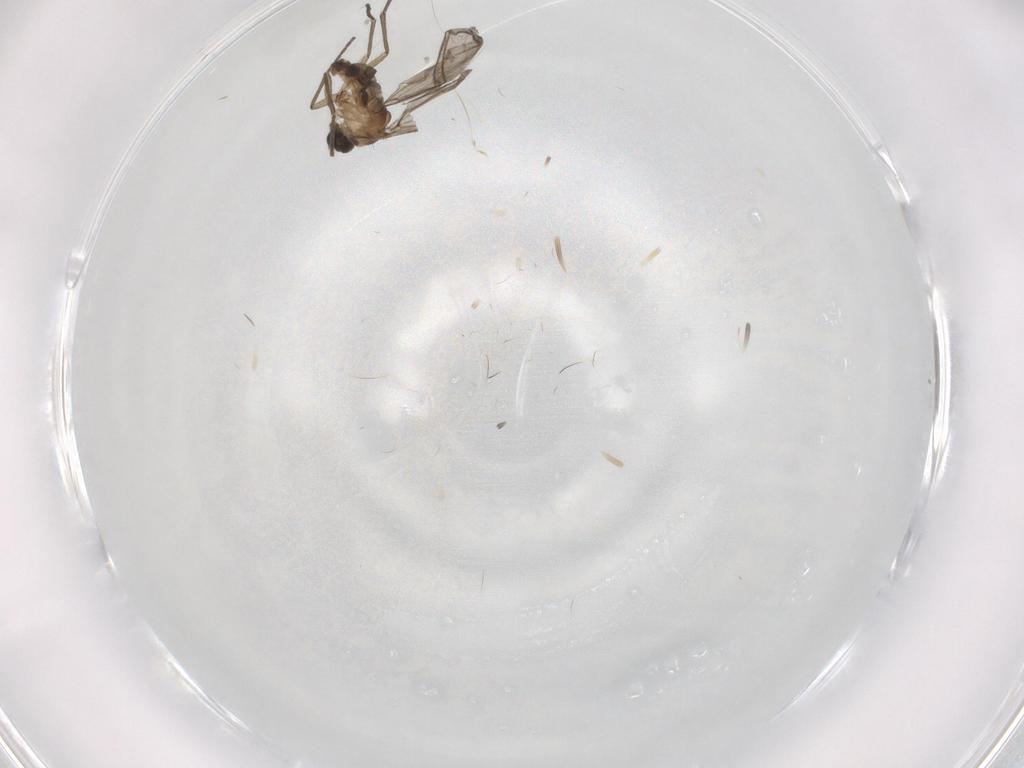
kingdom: Animalia
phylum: Arthropoda
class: Insecta
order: Diptera
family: Sciaridae
